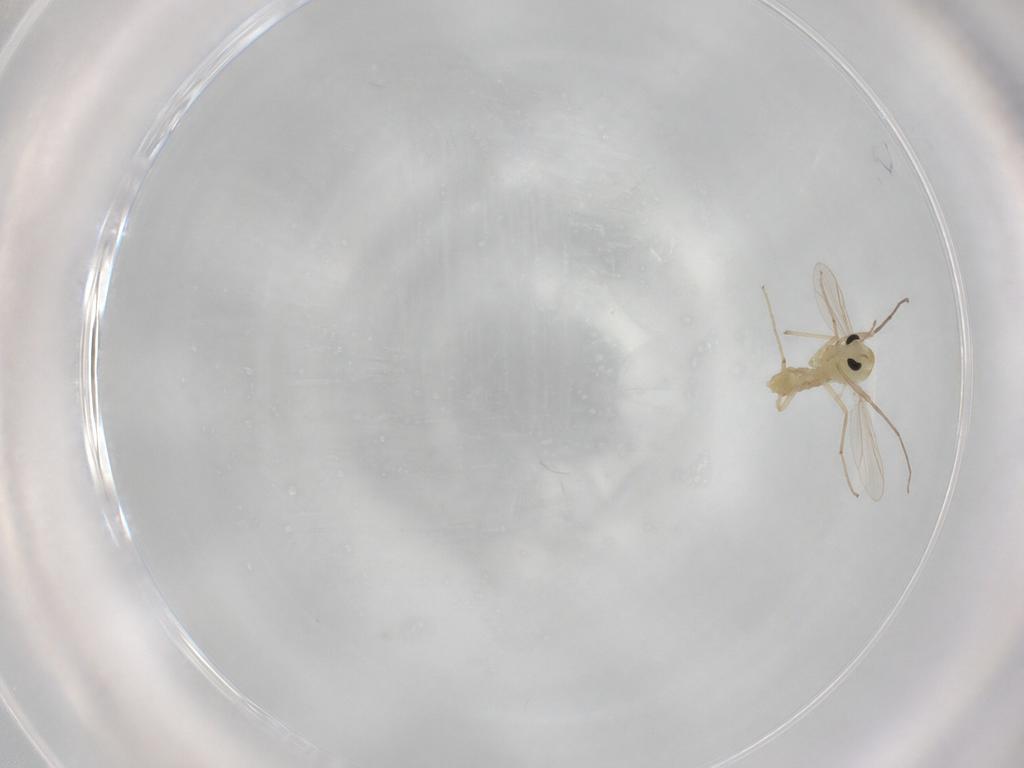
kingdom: Animalia
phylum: Arthropoda
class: Insecta
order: Diptera
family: Chironomidae
